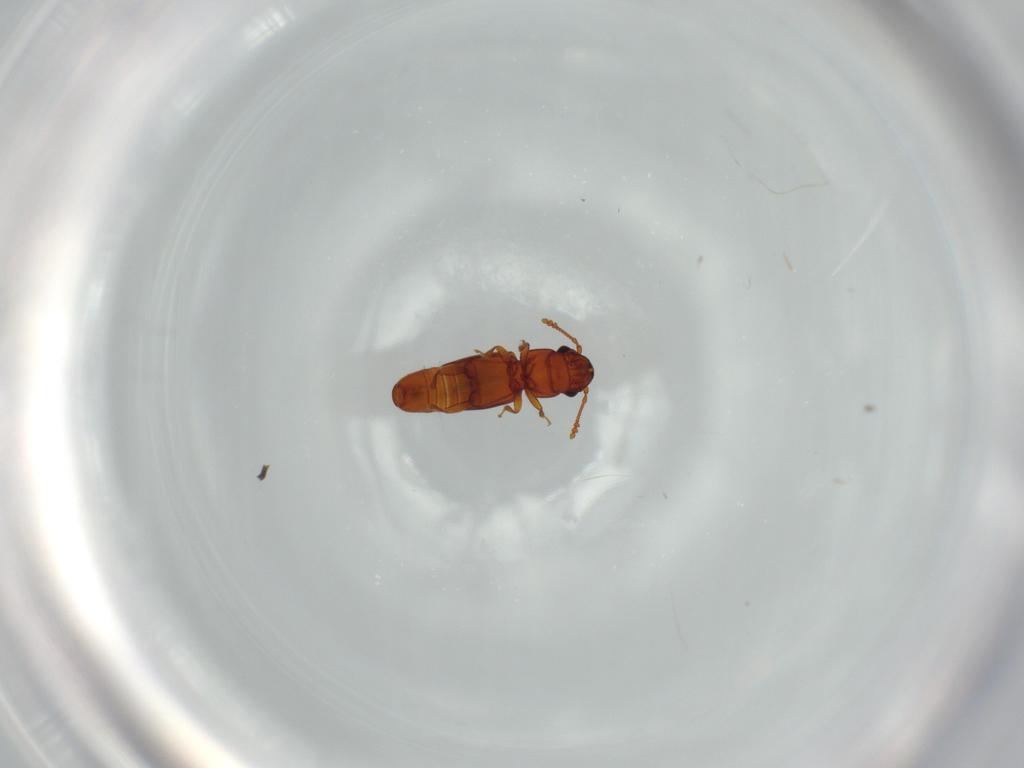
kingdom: Animalia
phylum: Arthropoda
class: Insecta
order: Coleoptera
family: Smicripidae
